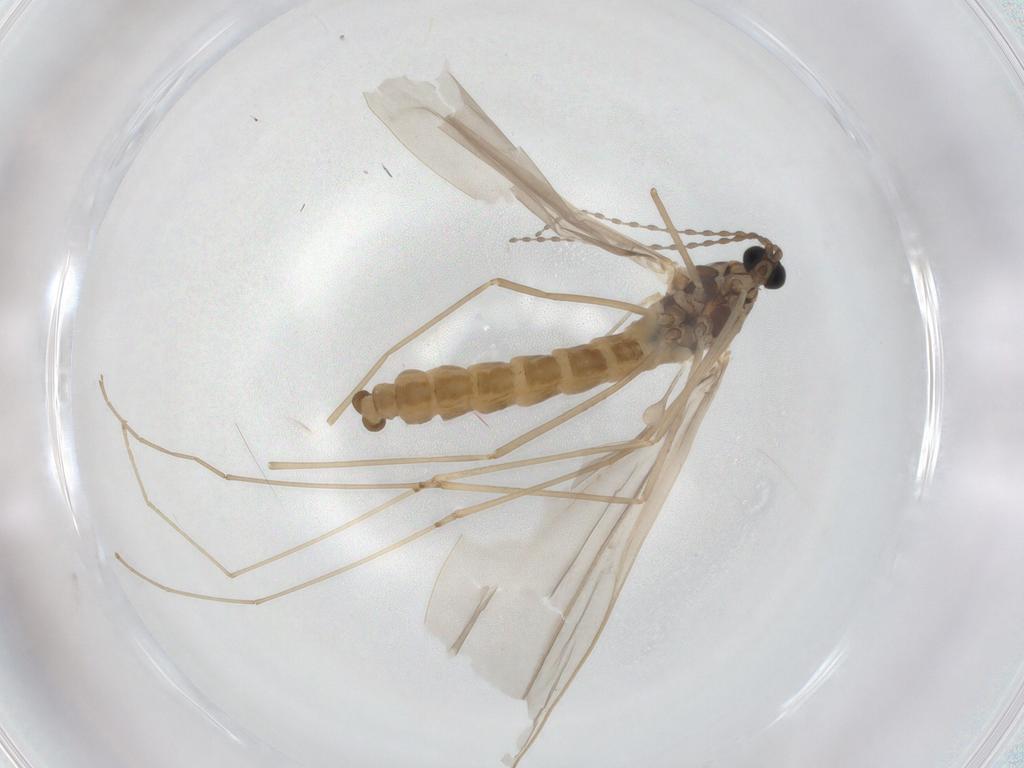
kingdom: Animalia
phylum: Arthropoda
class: Insecta
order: Diptera
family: Cecidomyiidae
